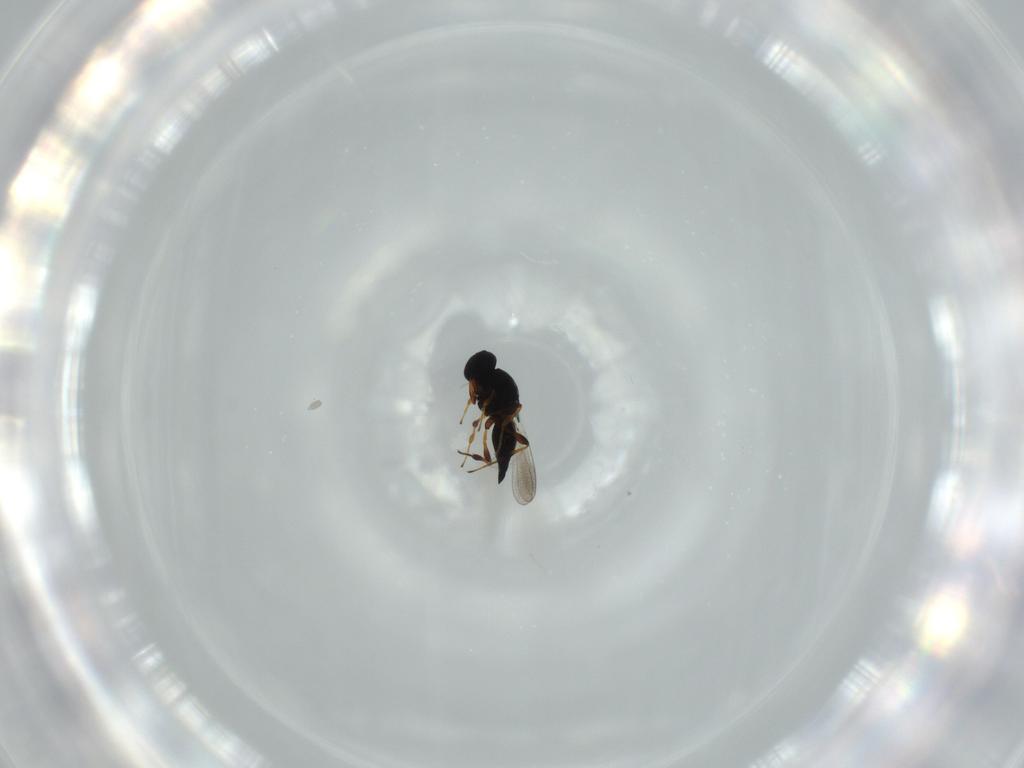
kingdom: Animalia
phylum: Arthropoda
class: Insecta
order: Hymenoptera
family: Platygastridae
